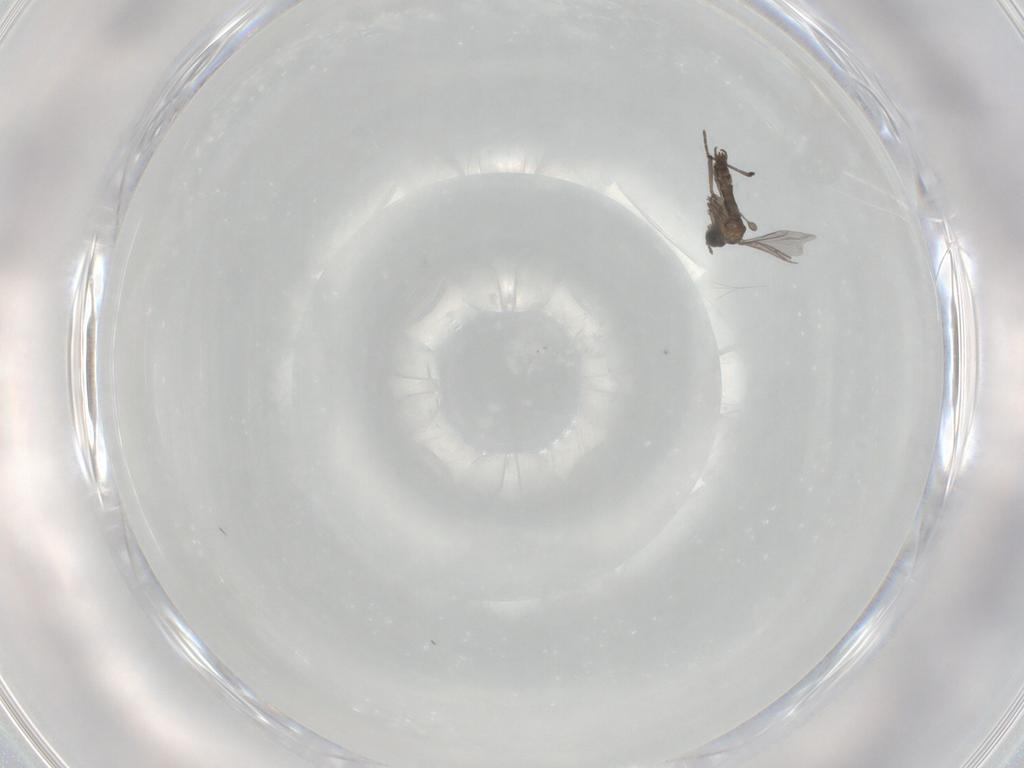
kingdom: Animalia
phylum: Arthropoda
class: Insecta
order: Diptera
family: Sciaridae
